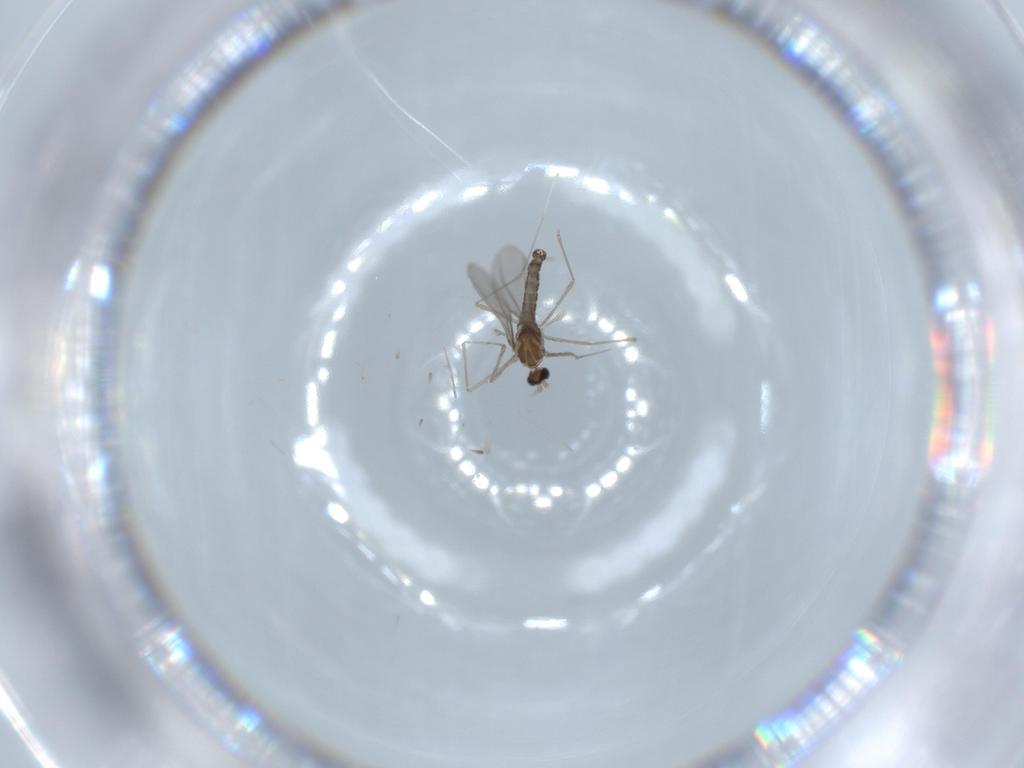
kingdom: Animalia
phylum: Arthropoda
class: Insecta
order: Diptera
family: Cecidomyiidae
